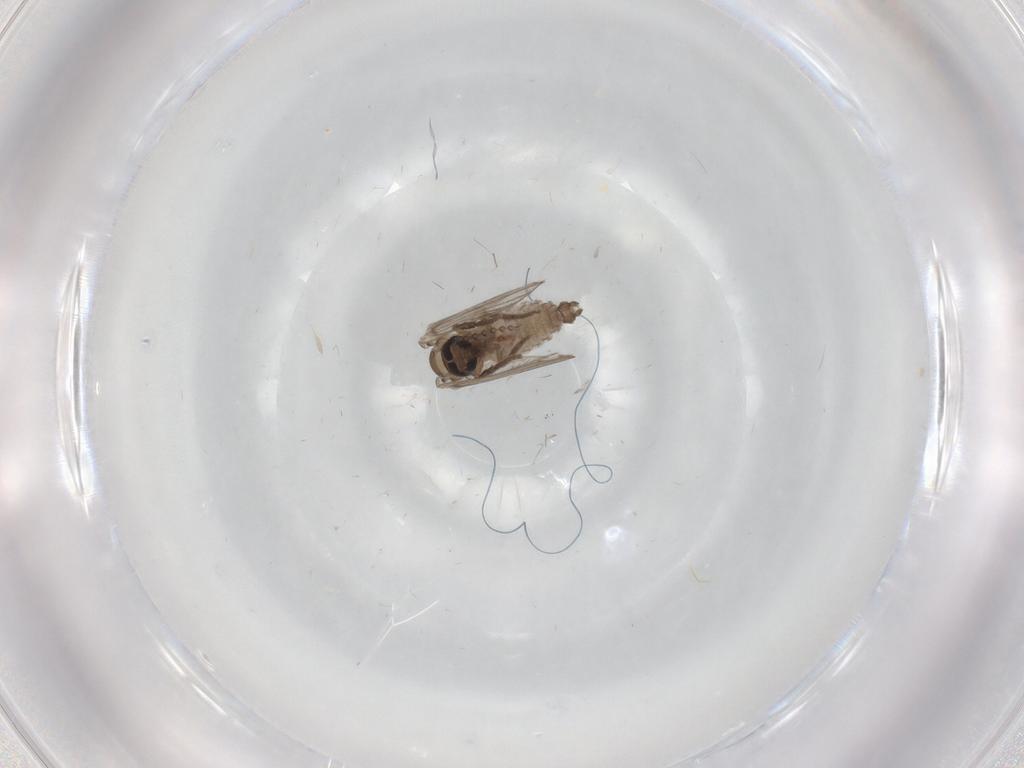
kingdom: Animalia
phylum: Arthropoda
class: Insecta
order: Diptera
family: Psychodidae
